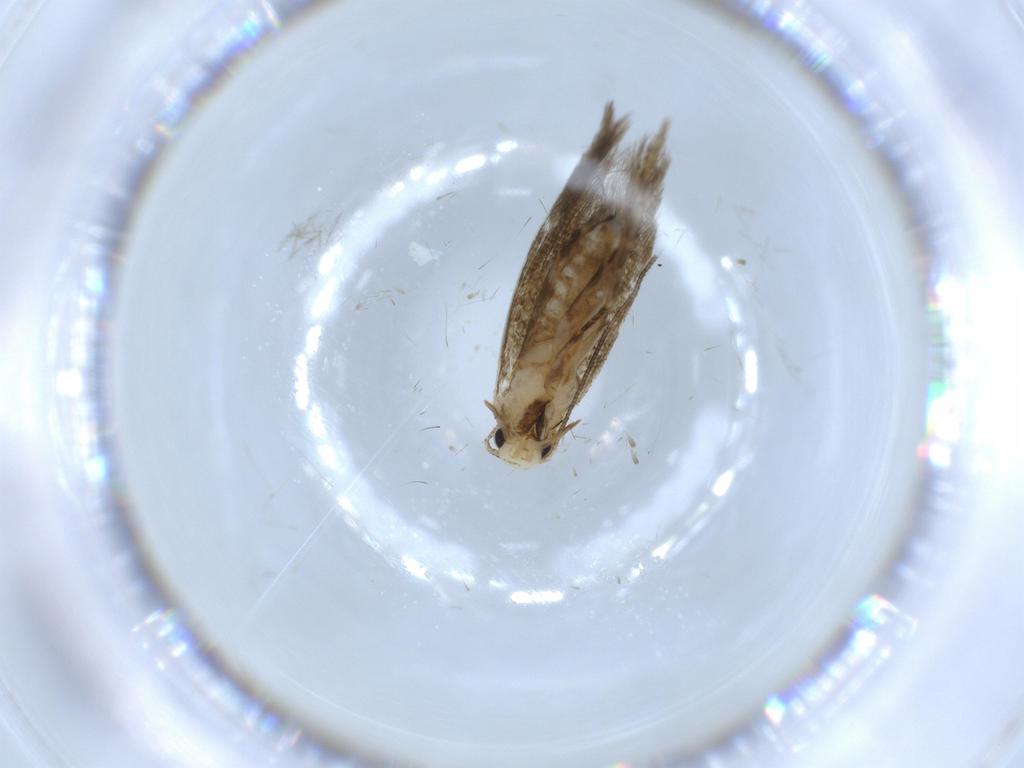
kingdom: Animalia
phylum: Arthropoda
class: Insecta
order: Lepidoptera
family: Tineidae
